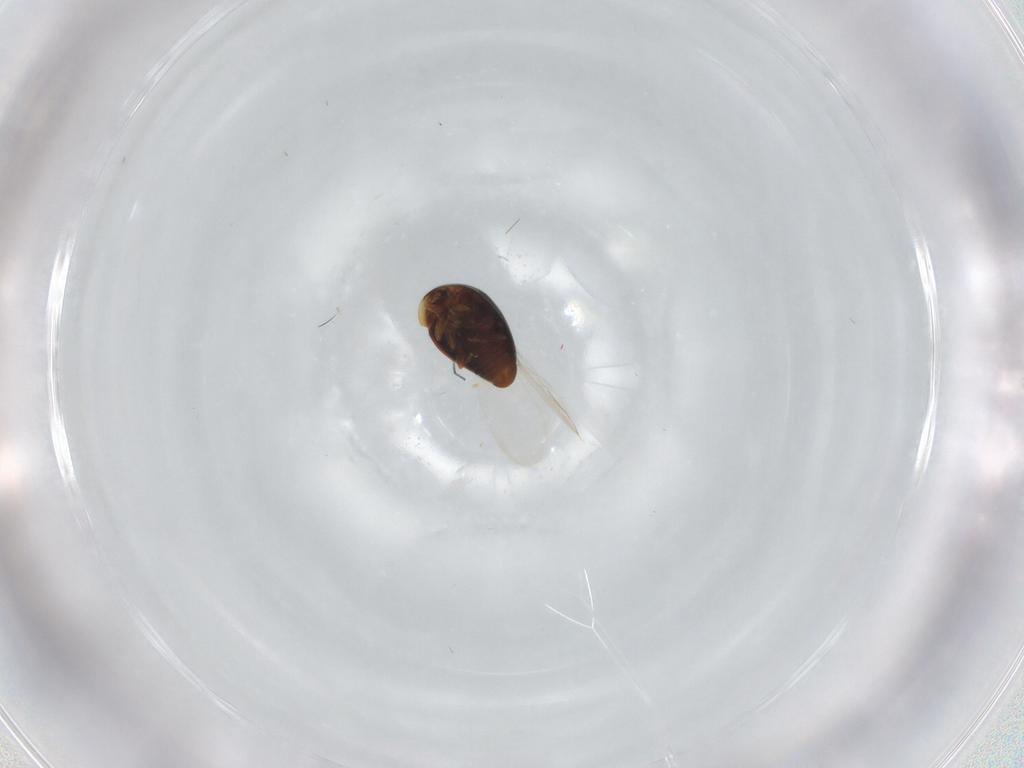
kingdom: Animalia
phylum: Arthropoda
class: Insecta
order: Coleoptera
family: Corylophidae
